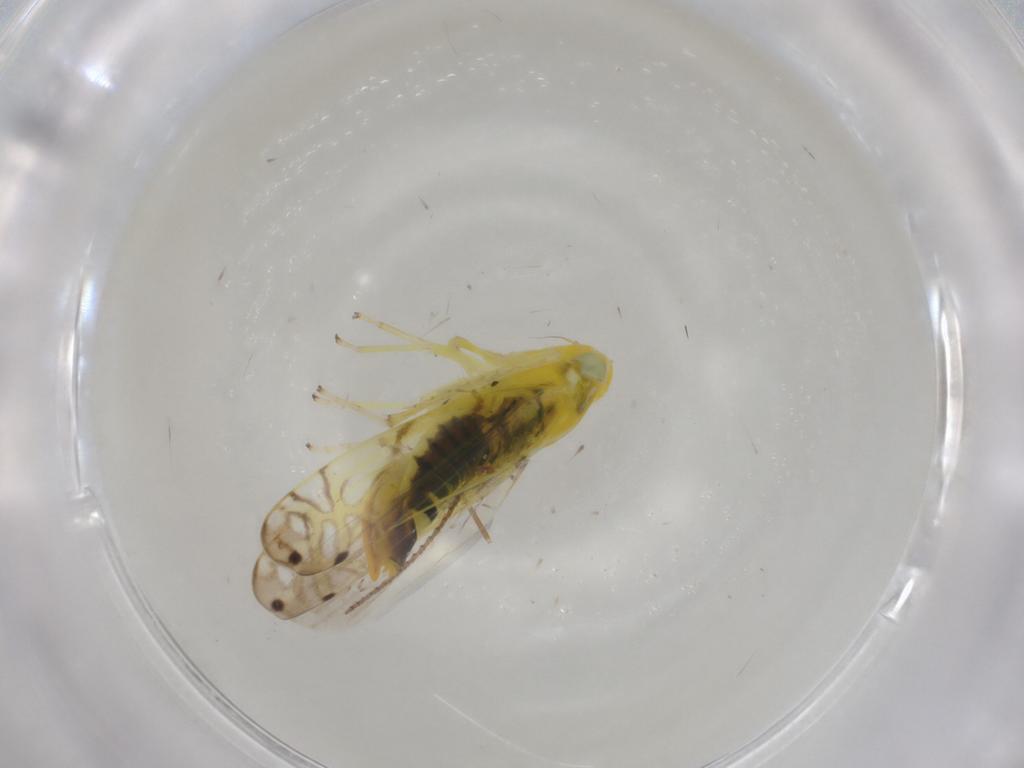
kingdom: Animalia
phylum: Arthropoda
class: Insecta
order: Hemiptera
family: Cicadellidae
